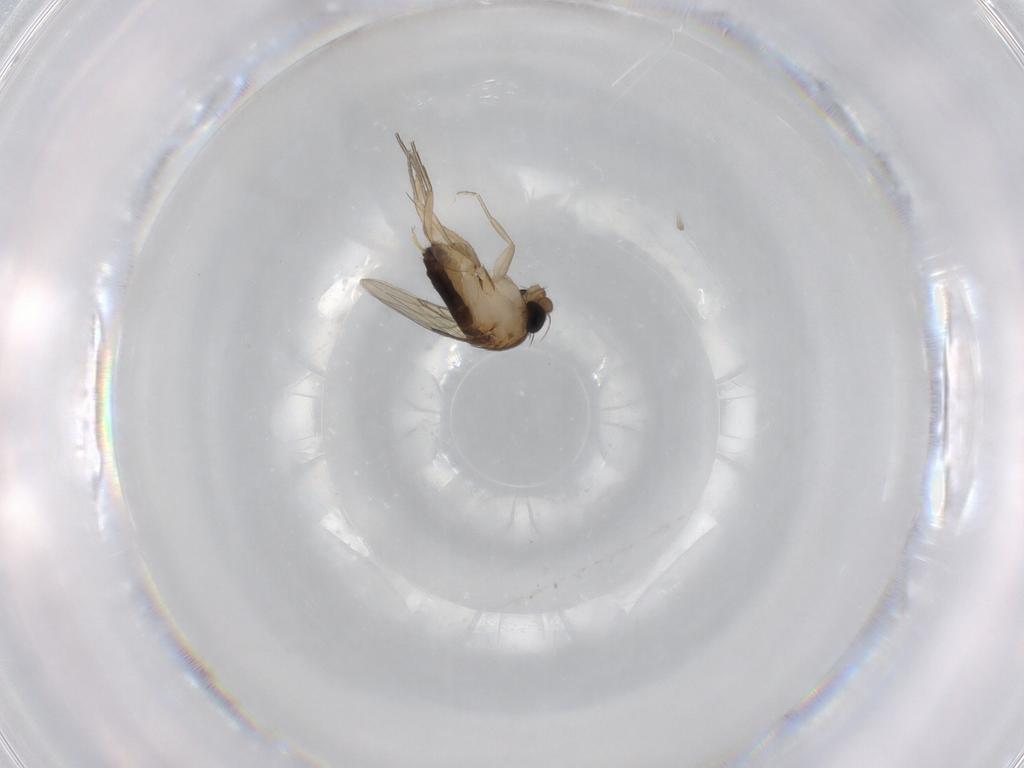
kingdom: Animalia
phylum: Arthropoda
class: Insecta
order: Diptera
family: Phoridae
